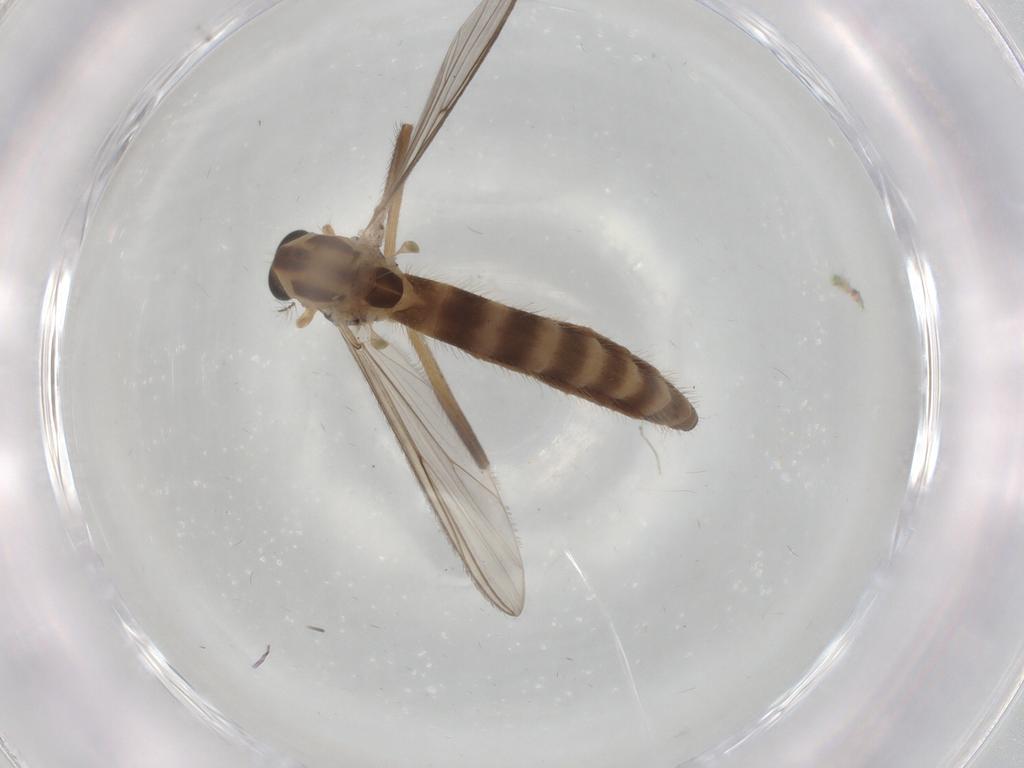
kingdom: Animalia
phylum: Arthropoda
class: Insecta
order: Diptera
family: Chironomidae
